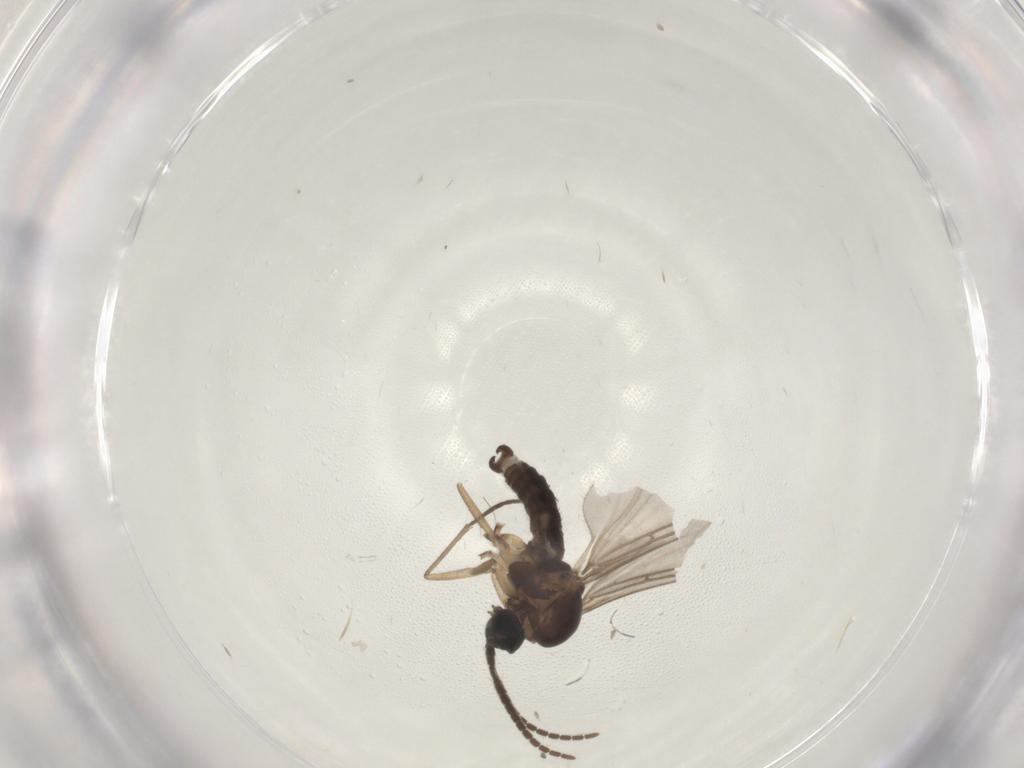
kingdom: Animalia
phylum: Arthropoda
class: Insecta
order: Diptera
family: Sciaridae
